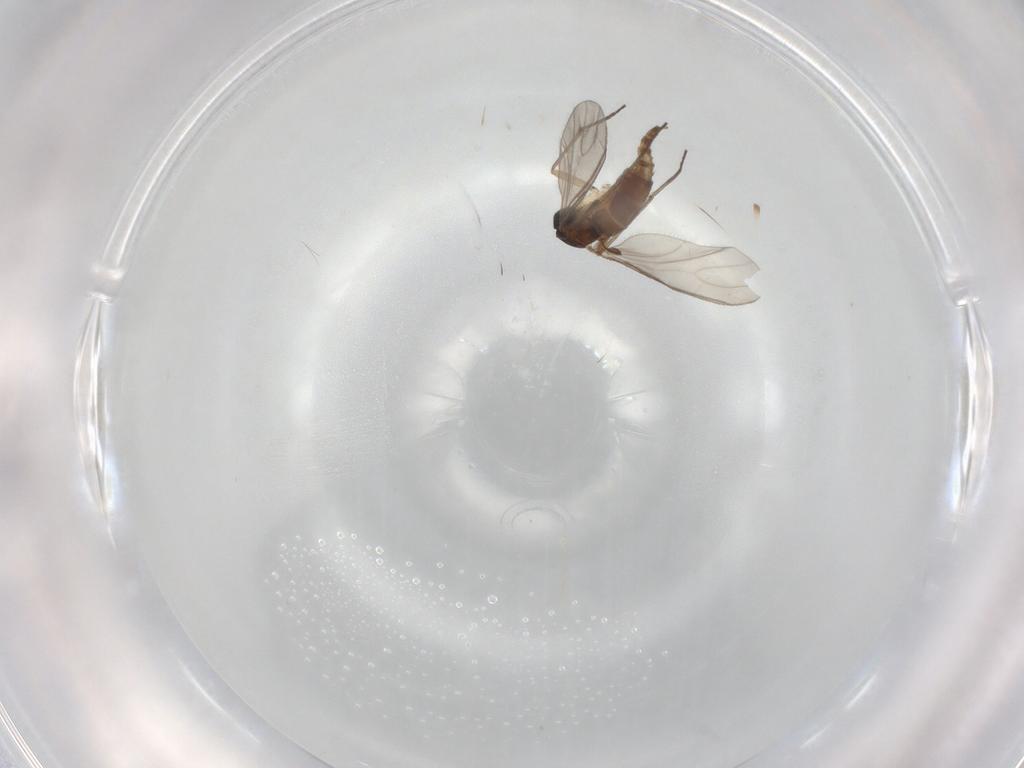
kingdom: Animalia
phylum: Arthropoda
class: Insecta
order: Diptera
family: Sciaridae
